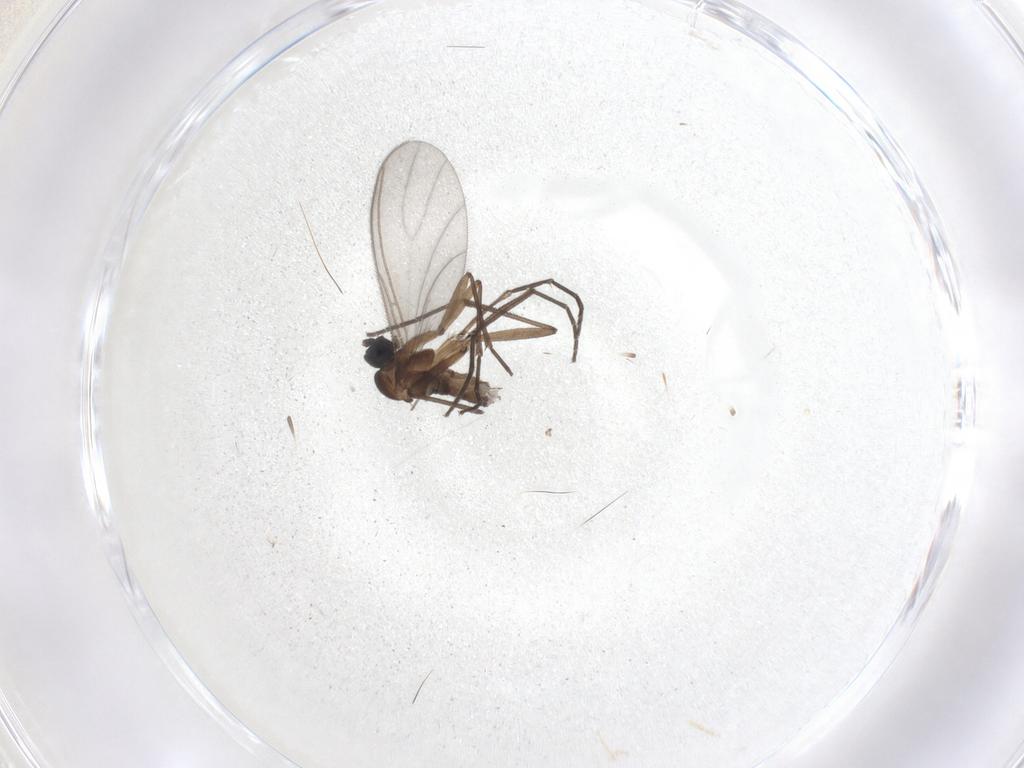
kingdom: Animalia
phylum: Arthropoda
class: Insecta
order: Diptera
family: Sciaridae
